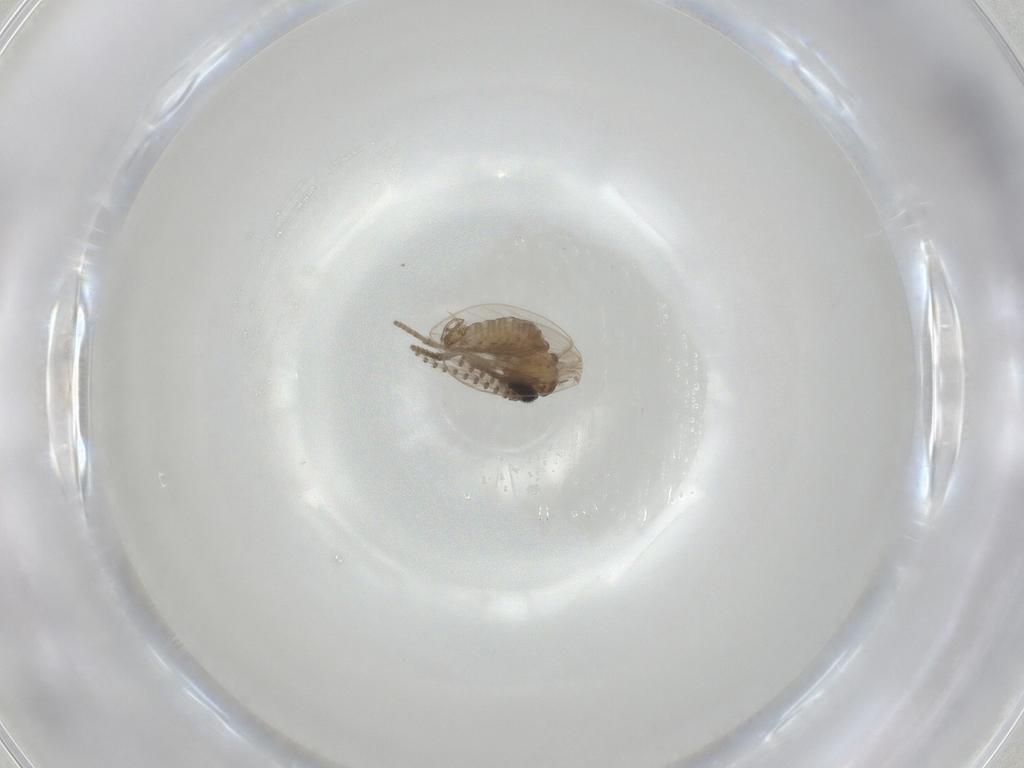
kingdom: Animalia
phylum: Arthropoda
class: Insecta
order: Diptera
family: Psychodidae
